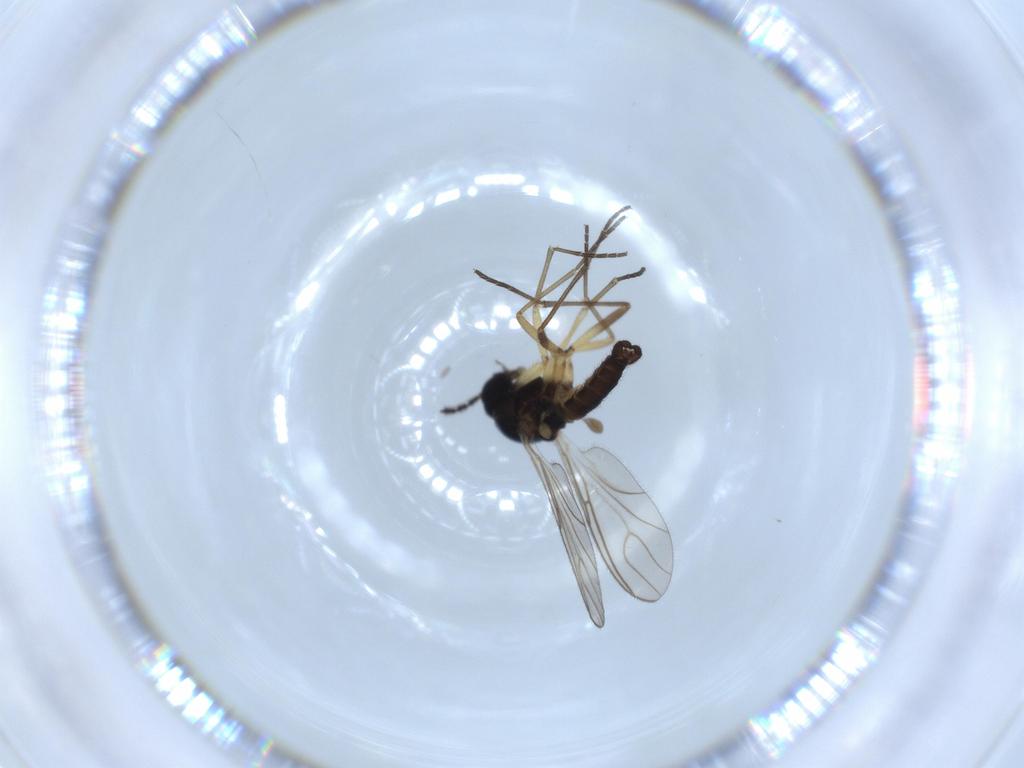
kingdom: Animalia
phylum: Arthropoda
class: Insecta
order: Diptera
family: Sciaridae
